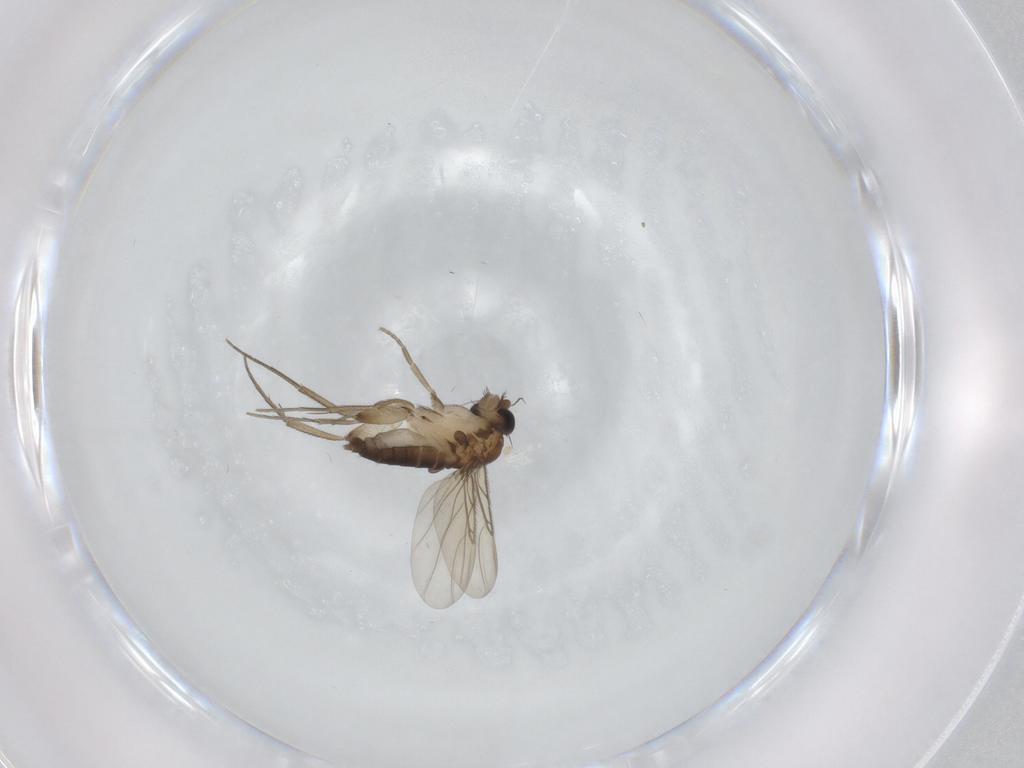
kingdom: Animalia
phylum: Arthropoda
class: Insecta
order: Diptera
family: Phoridae
